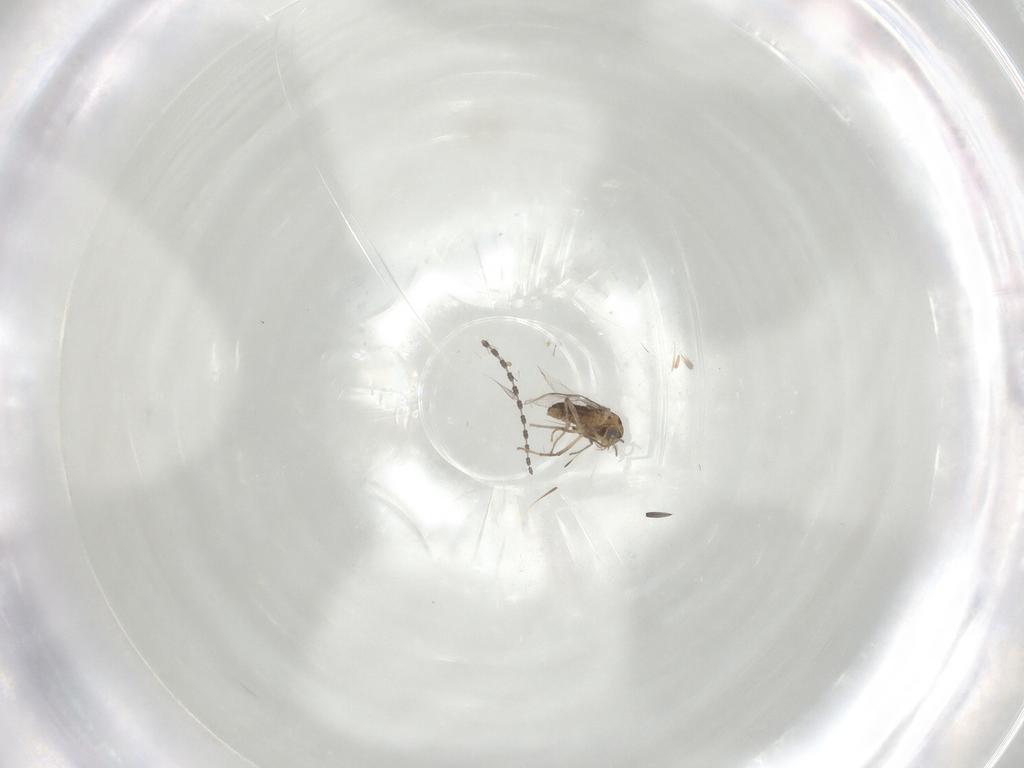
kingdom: Animalia
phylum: Arthropoda
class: Insecta
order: Diptera
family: Chironomidae
